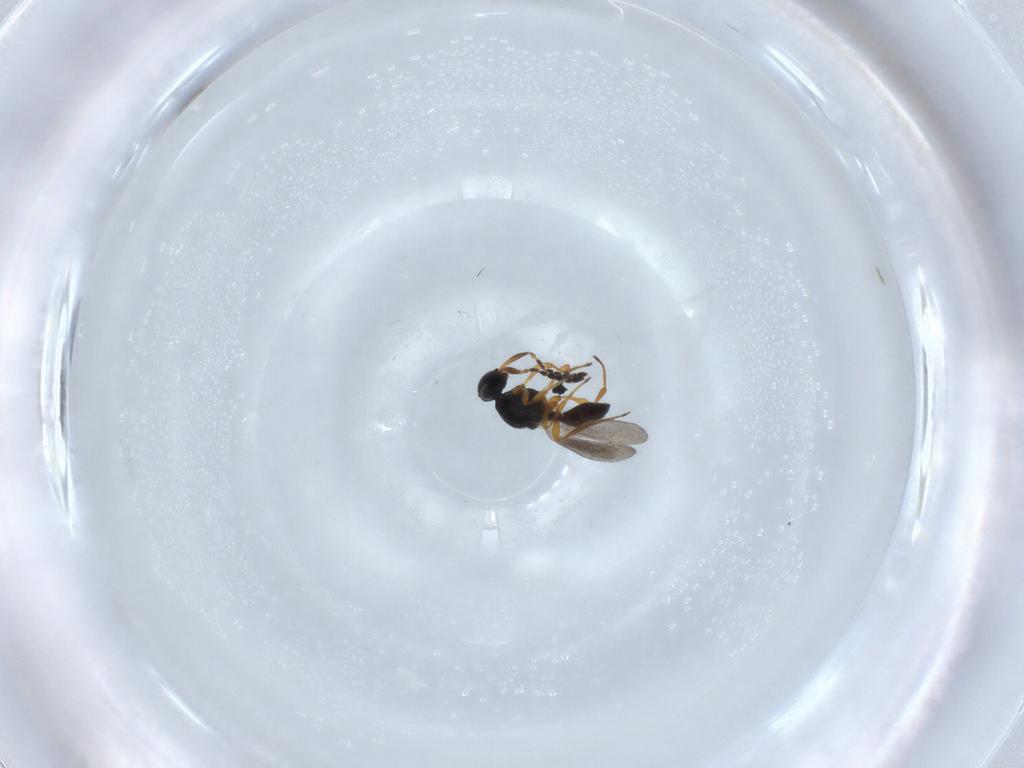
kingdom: Animalia
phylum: Arthropoda
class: Insecta
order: Hymenoptera
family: Platygastridae
